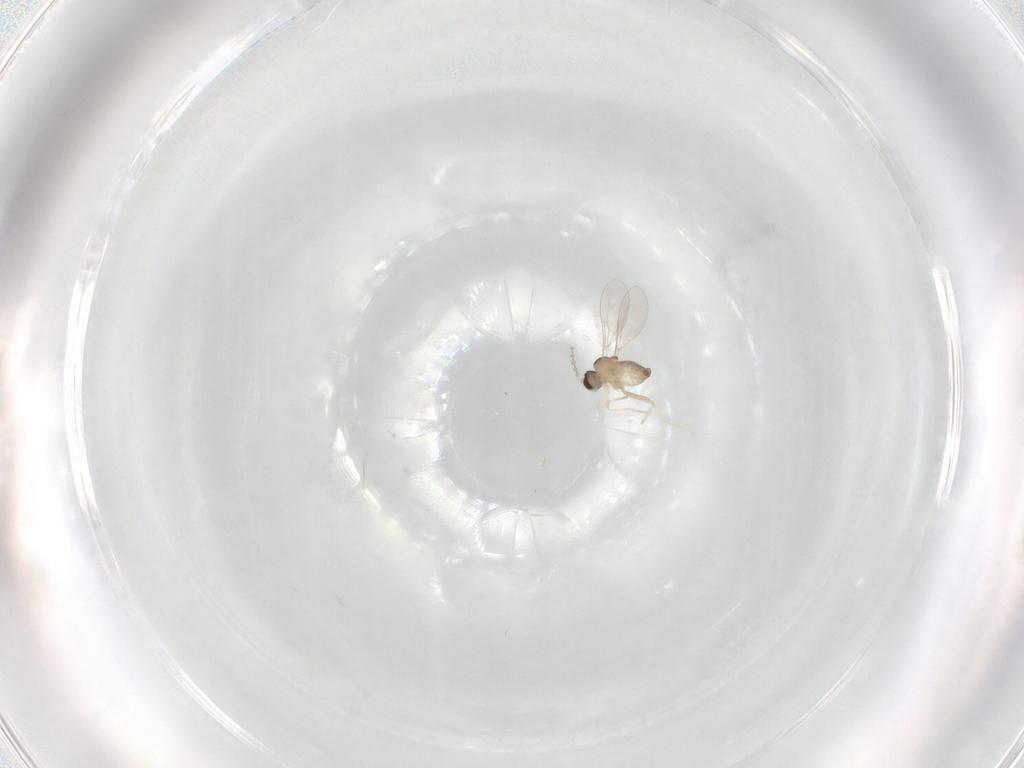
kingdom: Animalia
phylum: Arthropoda
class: Insecta
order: Diptera
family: Cecidomyiidae
